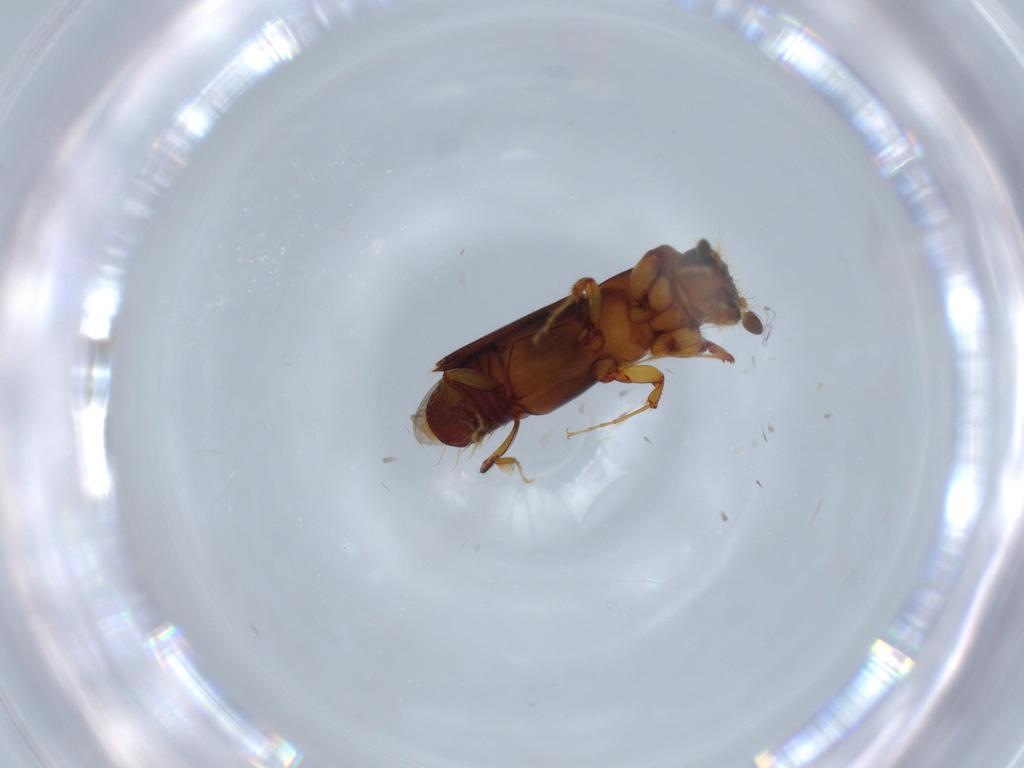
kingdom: Animalia
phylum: Arthropoda
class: Insecta
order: Coleoptera
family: Curculionidae
